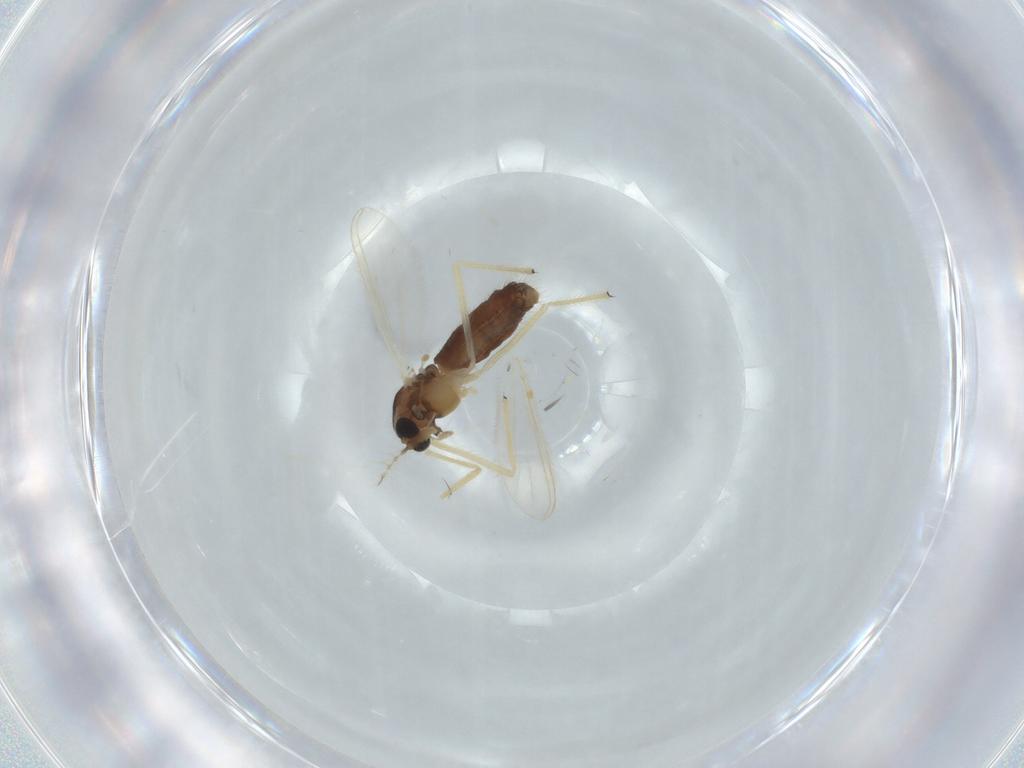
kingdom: Animalia
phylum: Arthropoda
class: Insecta
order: Diptera
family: Chironomidae
